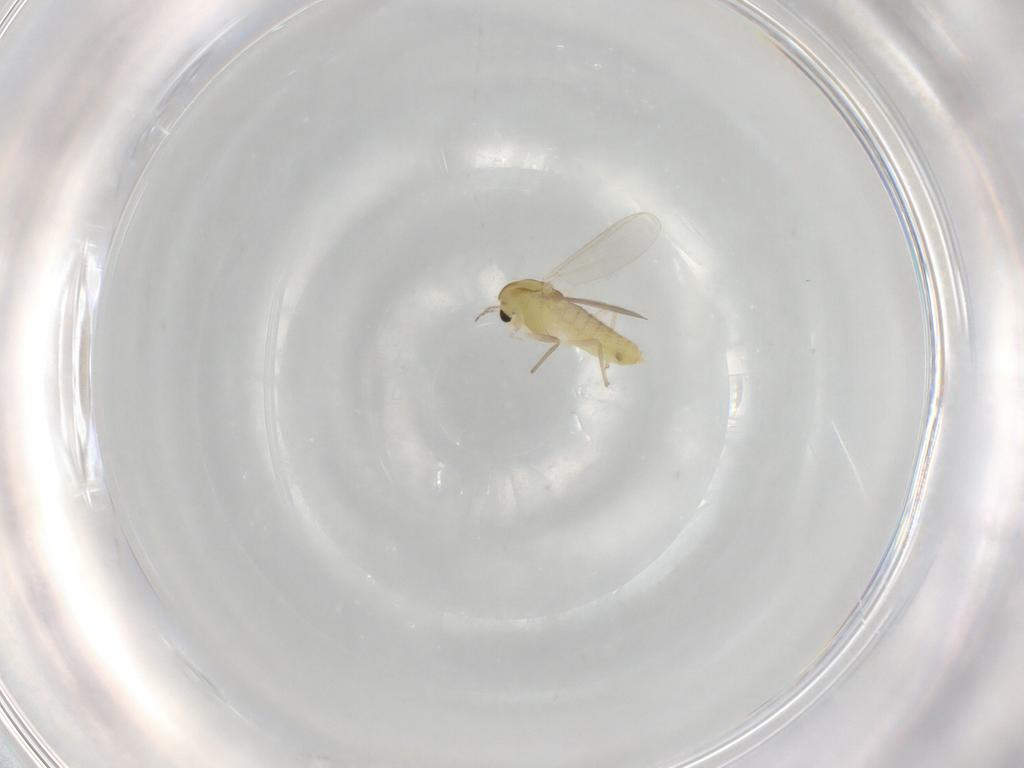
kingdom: Animalia
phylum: Arthropoda
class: Insecta
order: Diptera
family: Chironomidae
